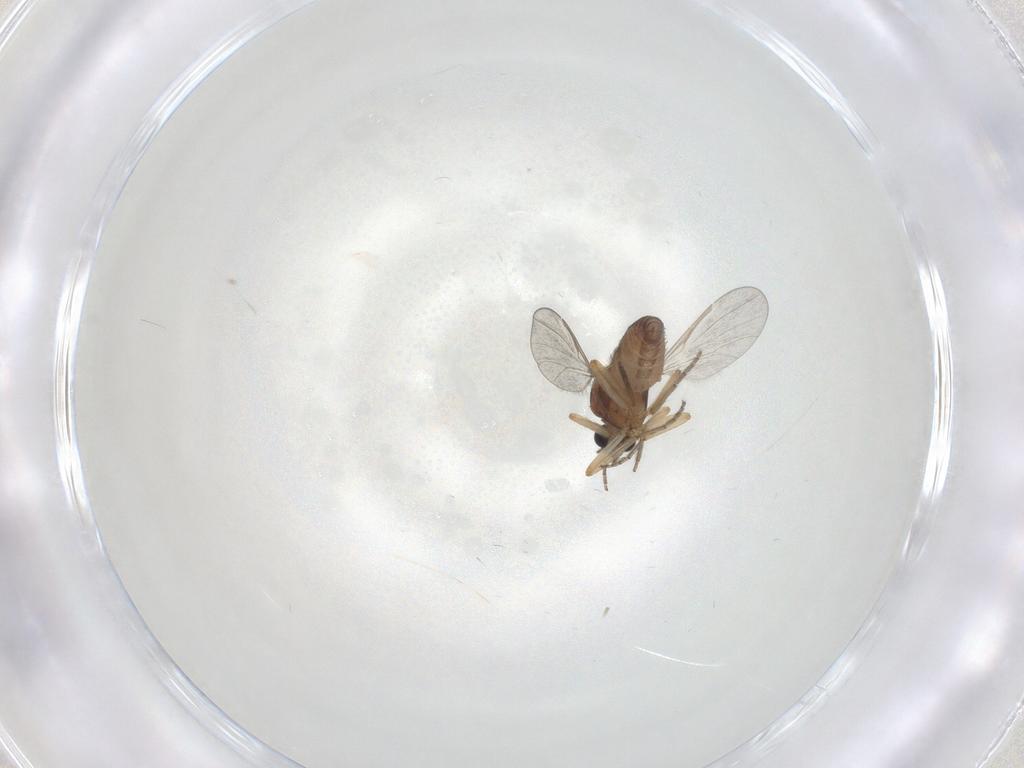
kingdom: Animalia
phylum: Arthropoda
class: Insecta
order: Diptera
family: Ceratopogonidae
